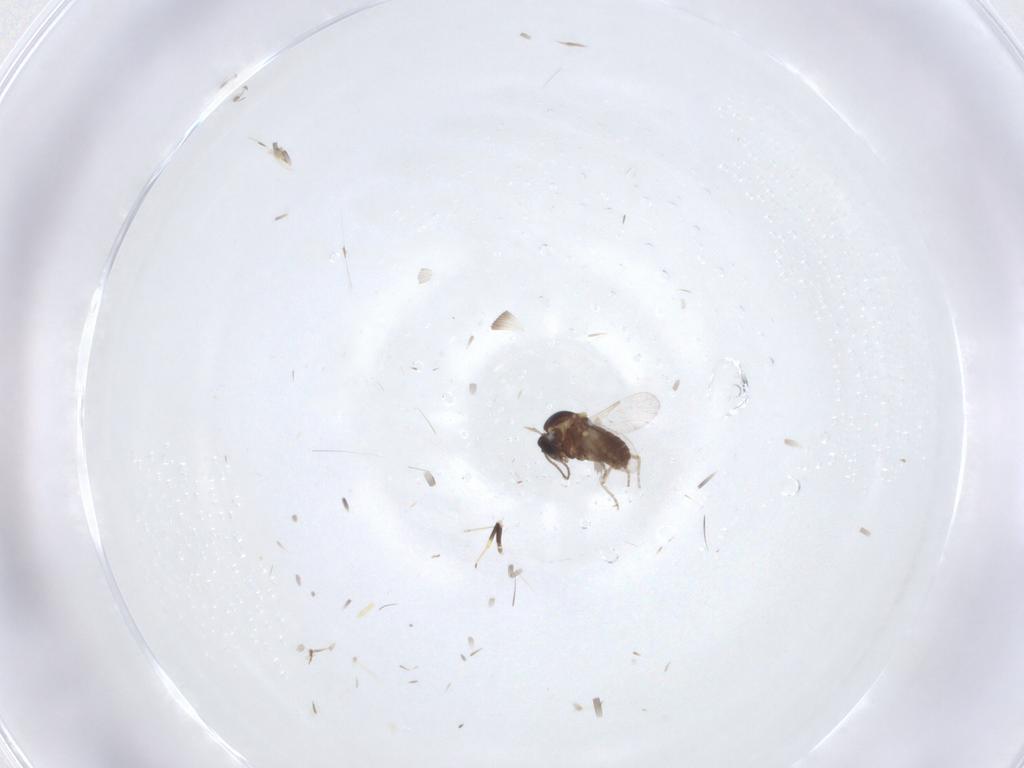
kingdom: Animalia
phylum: Arthropoda
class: Insecta
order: Diptera
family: Ceratopogonidae
